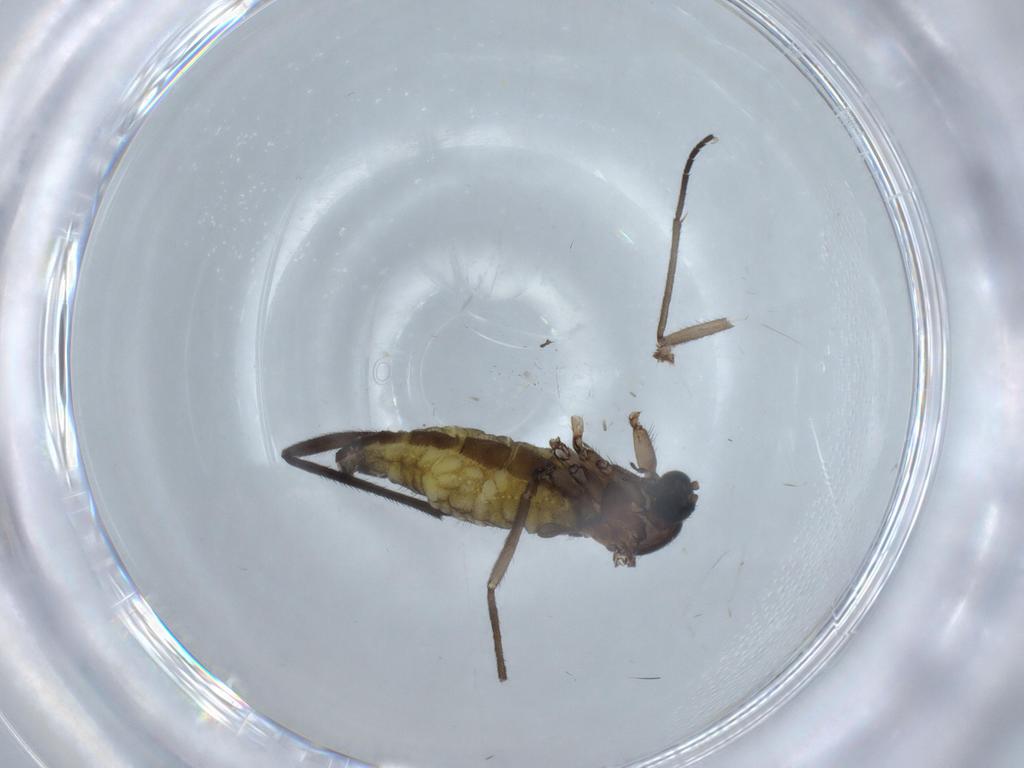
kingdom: Animalia
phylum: Arthropoda
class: Insecta
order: Diptera
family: Sciaridae
